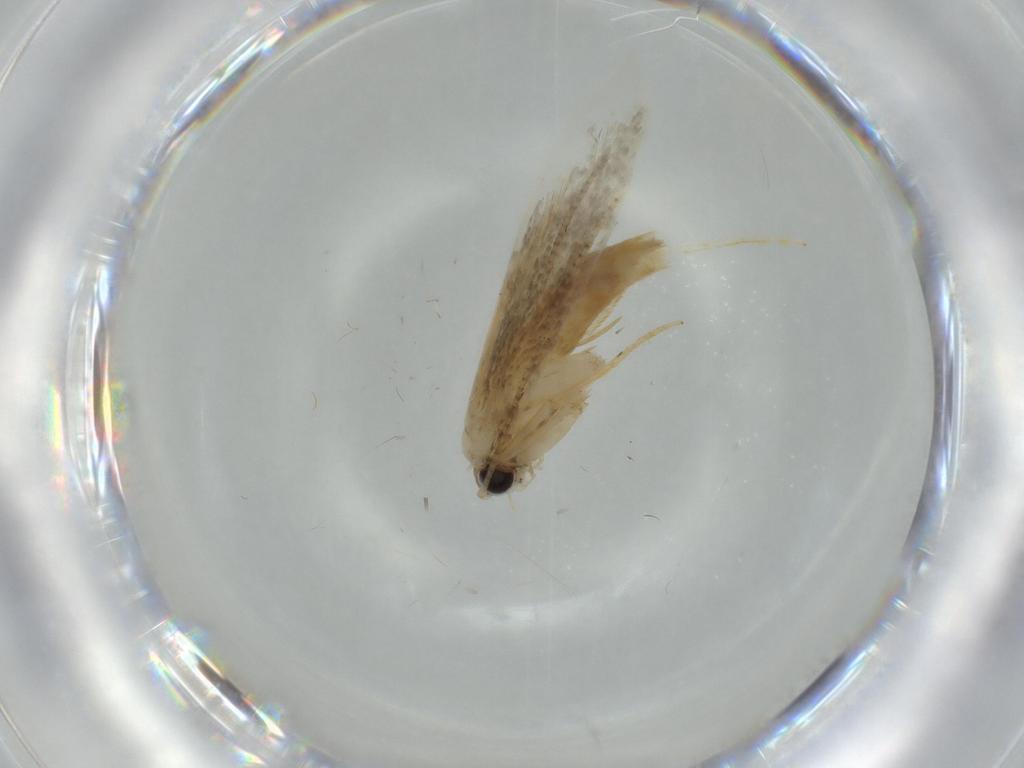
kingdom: Animalia
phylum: Arthropoda
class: Insecta
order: Lepidoptera
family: Tineidae
